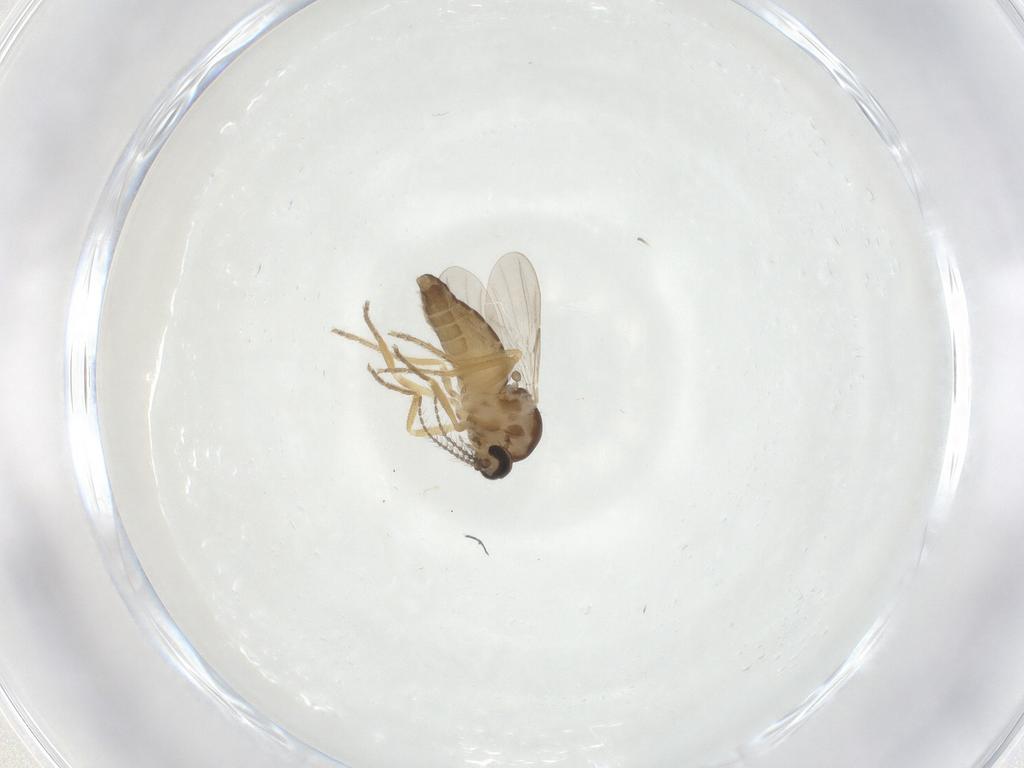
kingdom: Animalia
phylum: Arthropoda
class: Insecta
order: Diptera
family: Ceratopogonidae
